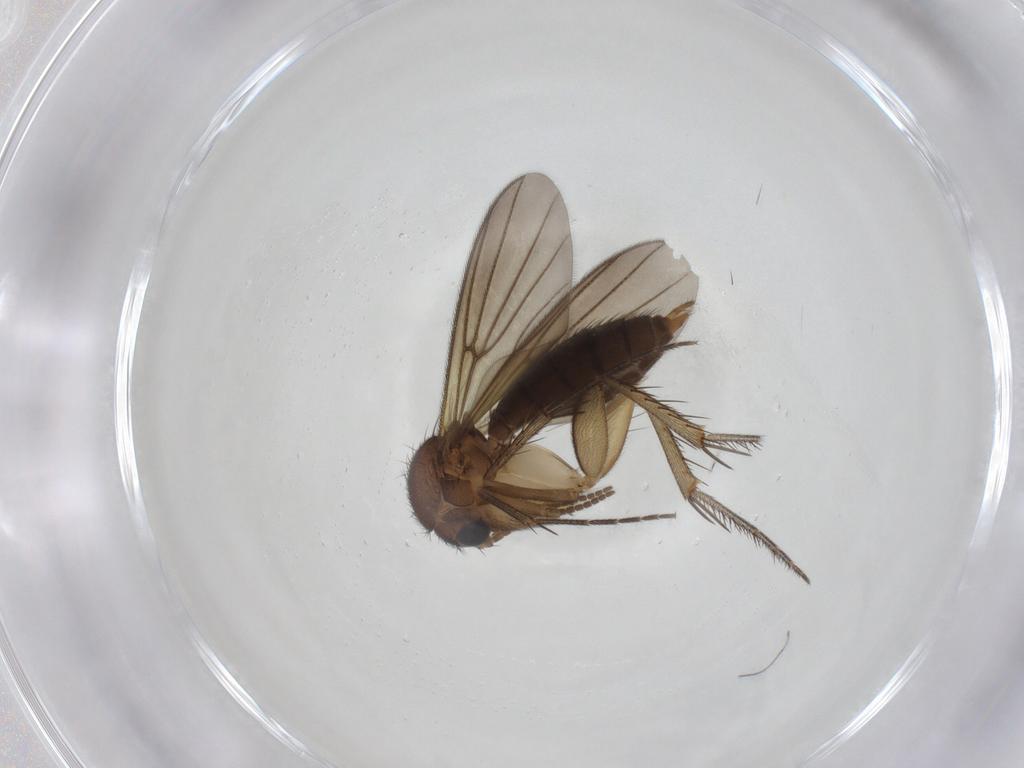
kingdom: Animalia
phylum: Arthropoda
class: Insecta
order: Diptera
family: Mycetophilidae
